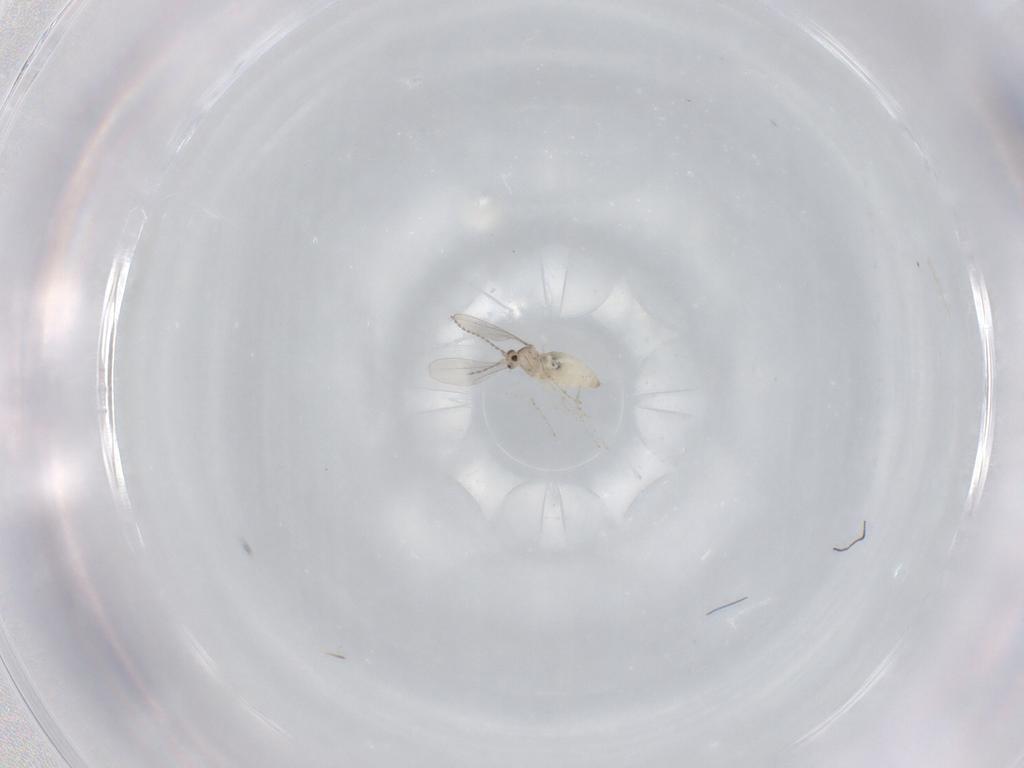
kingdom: Animalia
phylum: Arthropoda
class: Insecta
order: Diptera
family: Cecidomyiidae
